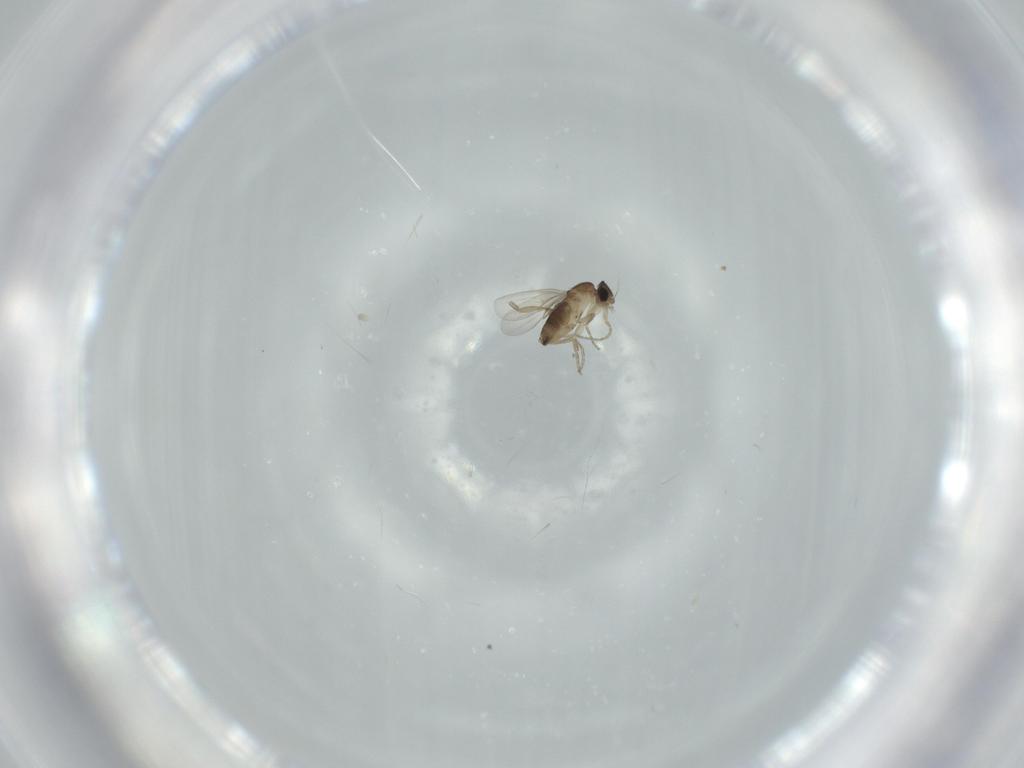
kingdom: Animalia
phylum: Arthropoda
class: Insecta
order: Diptera
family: Phoridae
